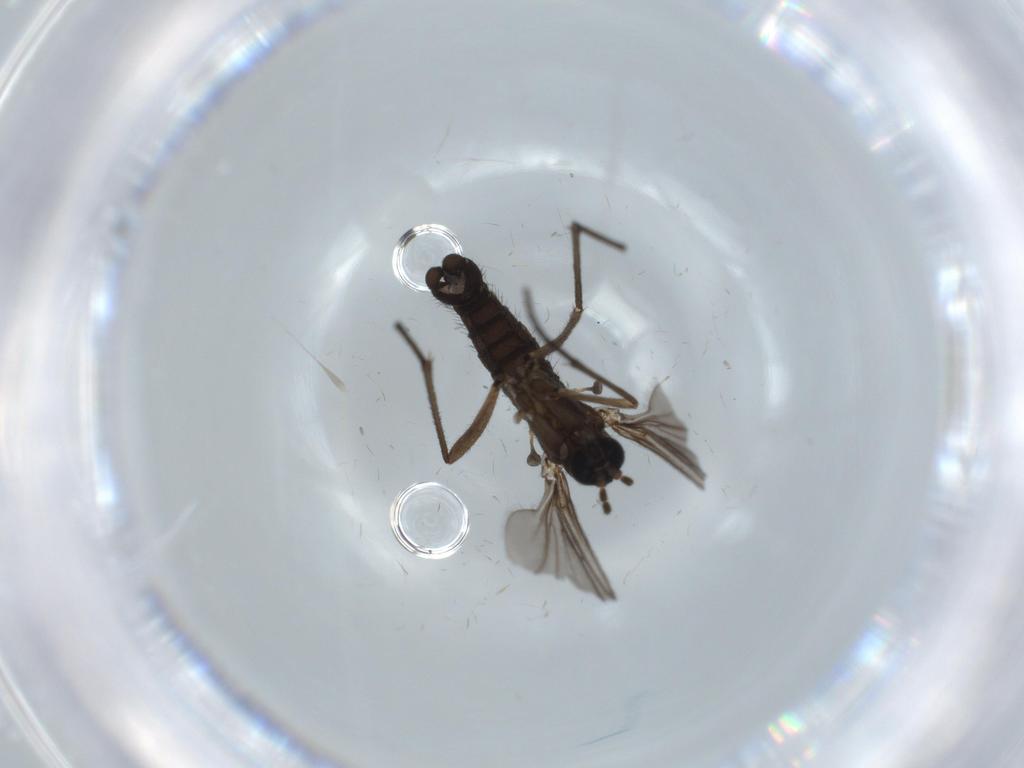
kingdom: Animalia
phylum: Arthropoda
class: Insecta
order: Diptera
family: Sciaridae
